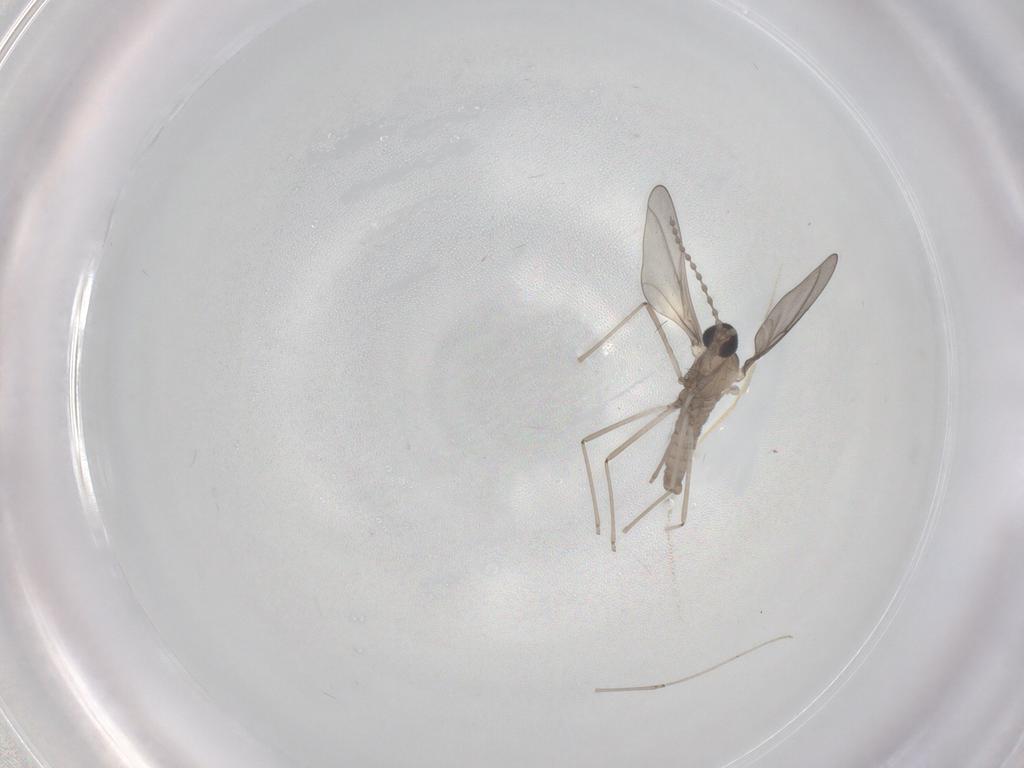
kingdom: Animalia
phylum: Arthropoda
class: Insecta
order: Diptera
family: Cecidomyiidae
